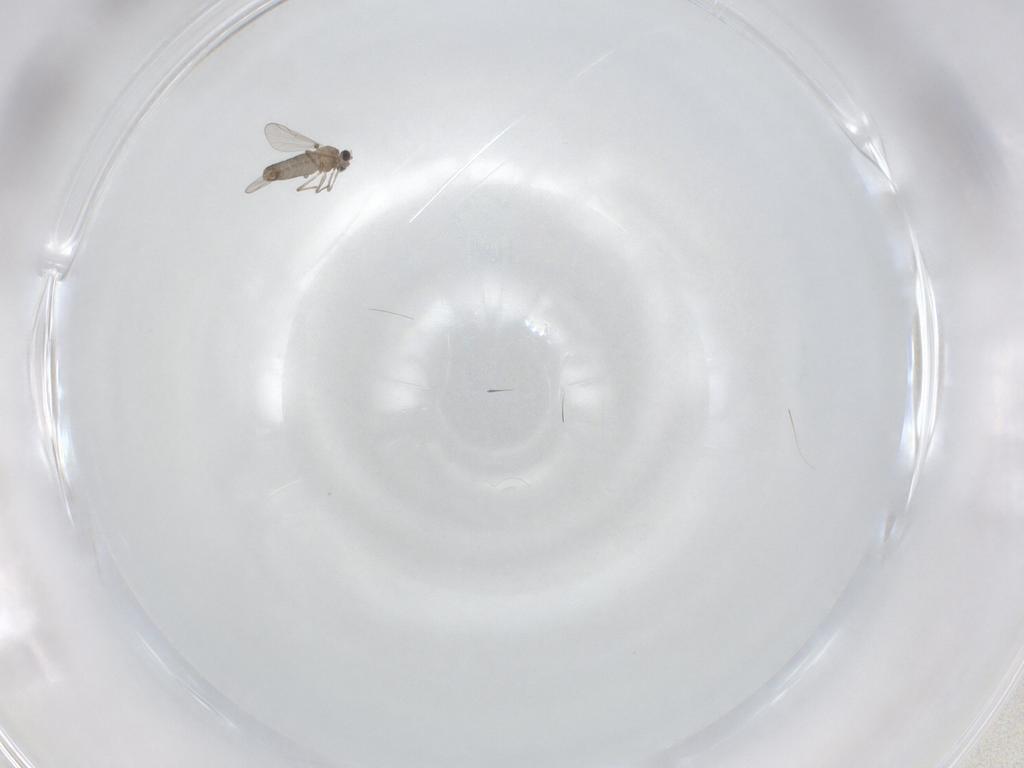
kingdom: Animalia
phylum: Arthropoda
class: Insecta
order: Diptera
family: Chironomidae
